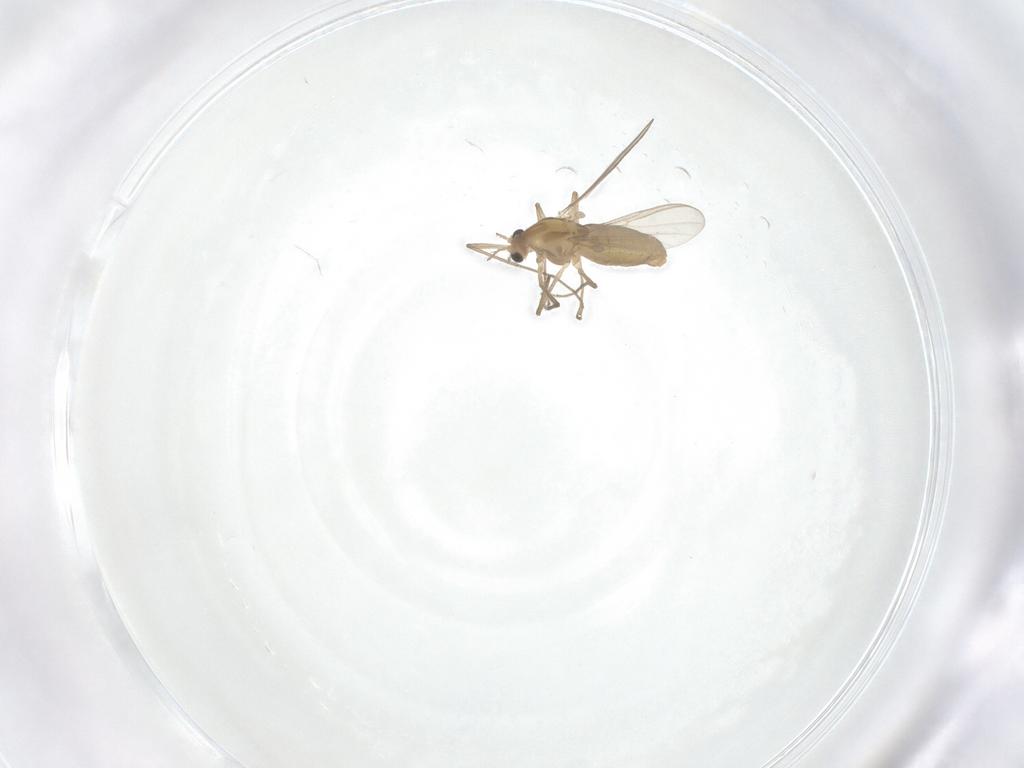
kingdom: Animalia
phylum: Arthropoda
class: Insecta
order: Diptera
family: Chironomidae
